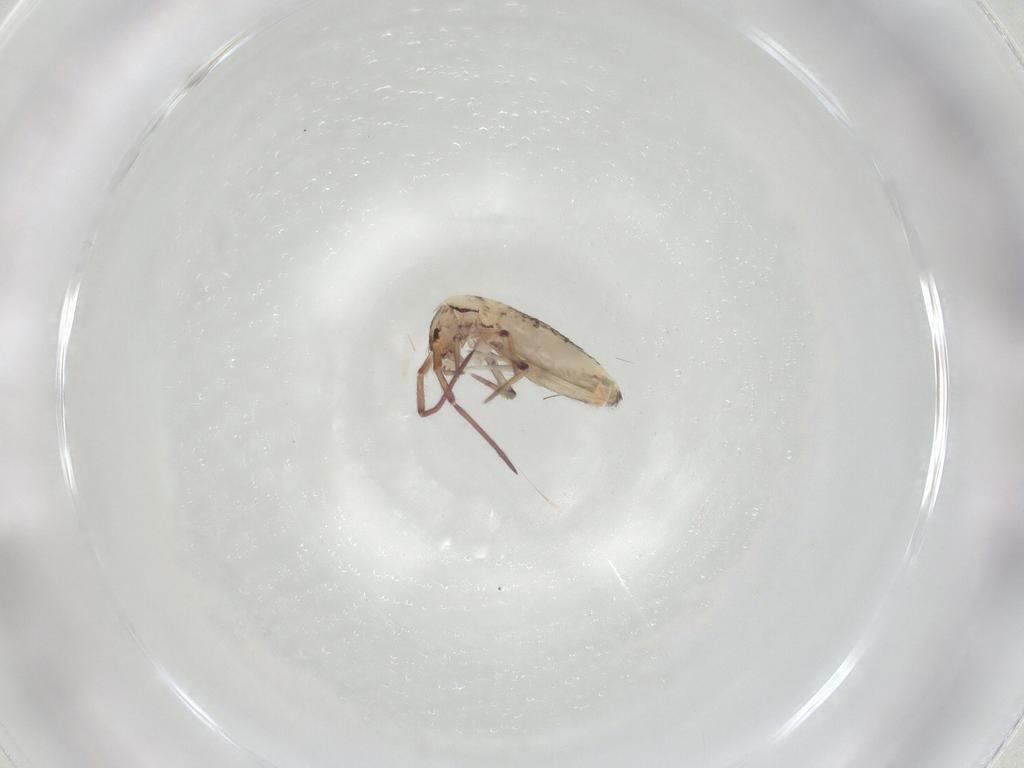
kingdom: Animalia
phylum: Arthropoda
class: Collembola
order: Entomobryomorpha
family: Entomobryidae
